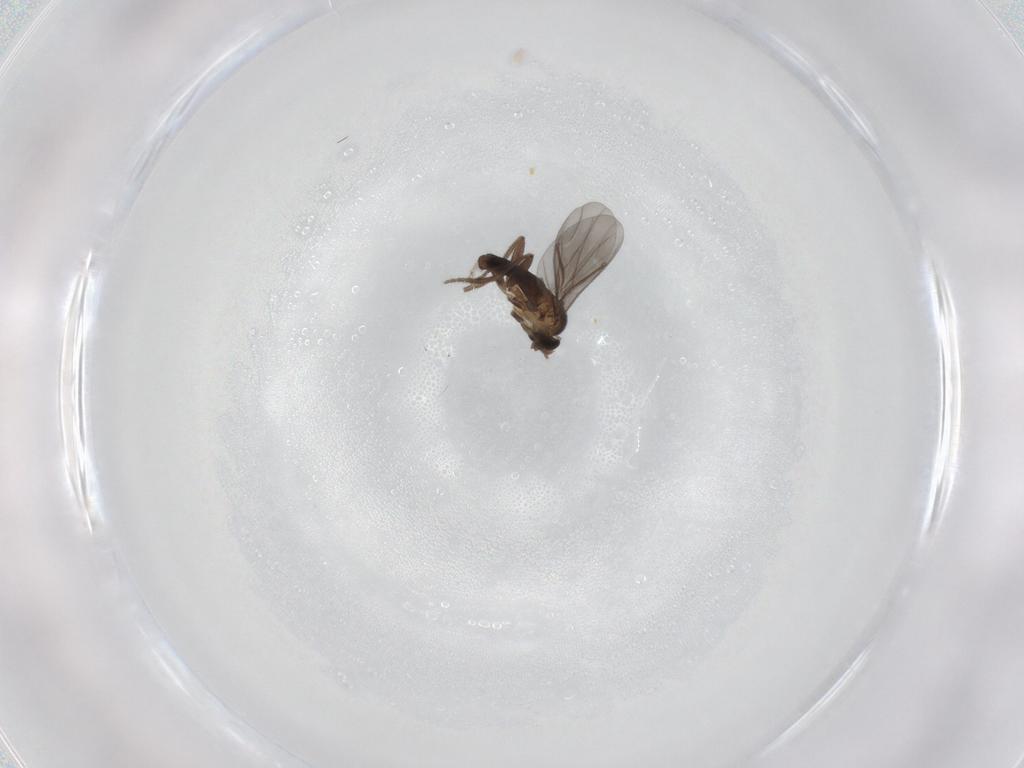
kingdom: Animalia
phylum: Arthropoda
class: Insecta
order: Diptera
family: Phoridae
